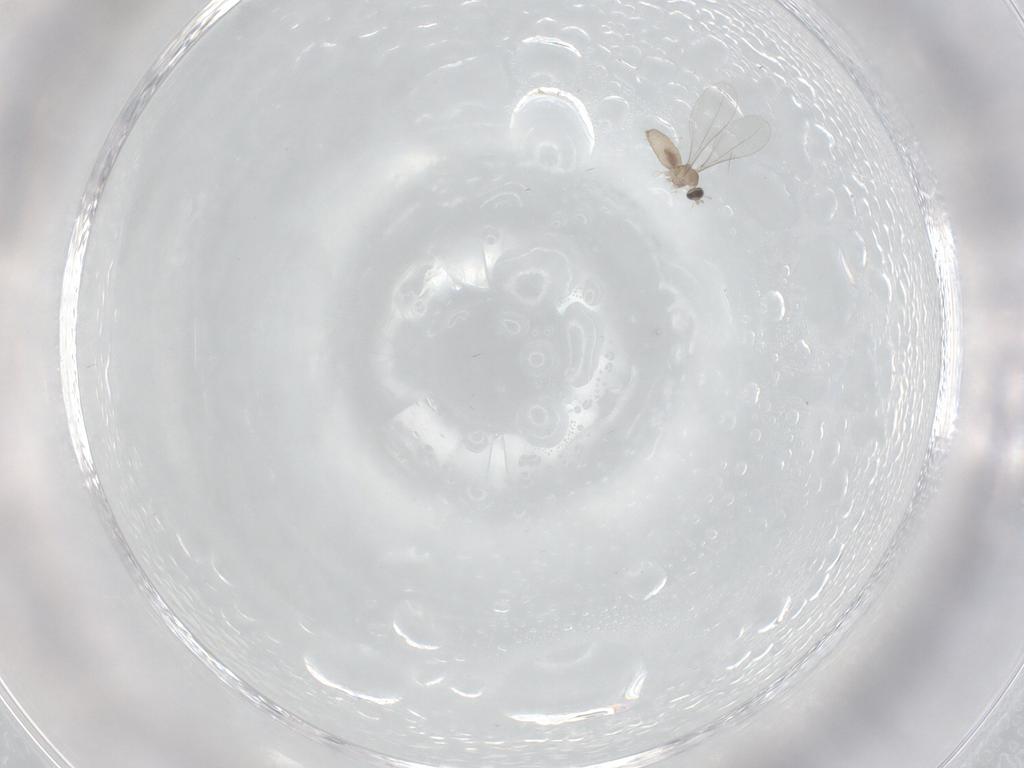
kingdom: Animalia
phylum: Arthropoda
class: Insecta
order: Diptera
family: Cecidomyiidae
